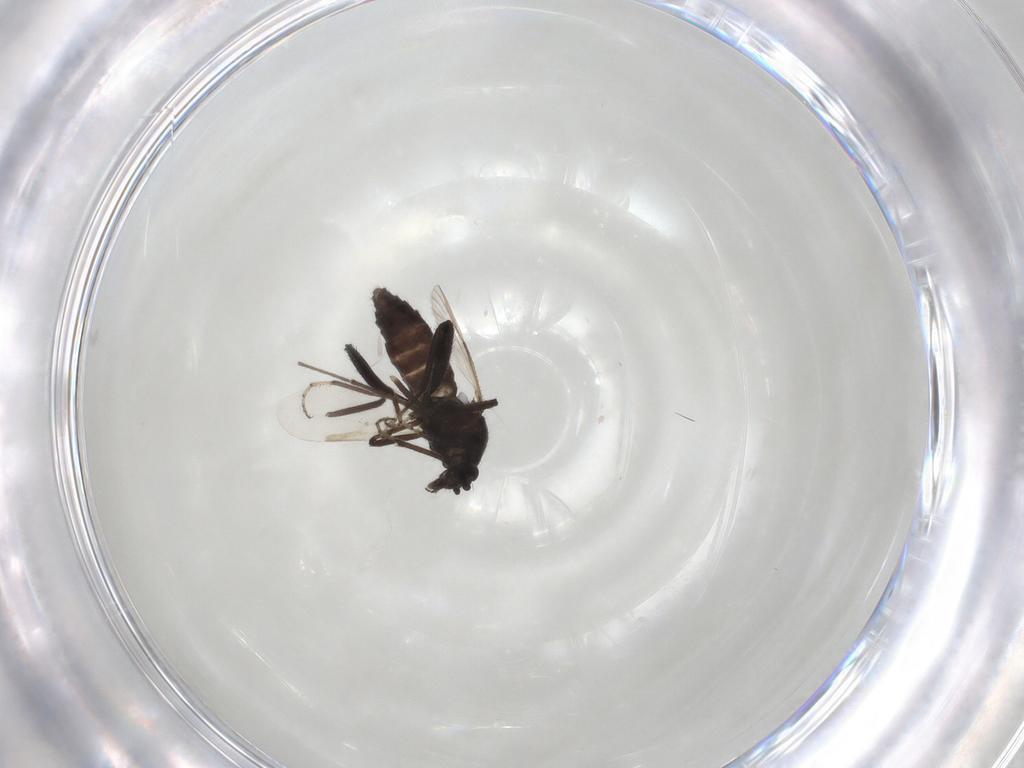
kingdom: Animalia
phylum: Arthropoda
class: Insecta
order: Diptera
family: Ceratopogonidae
